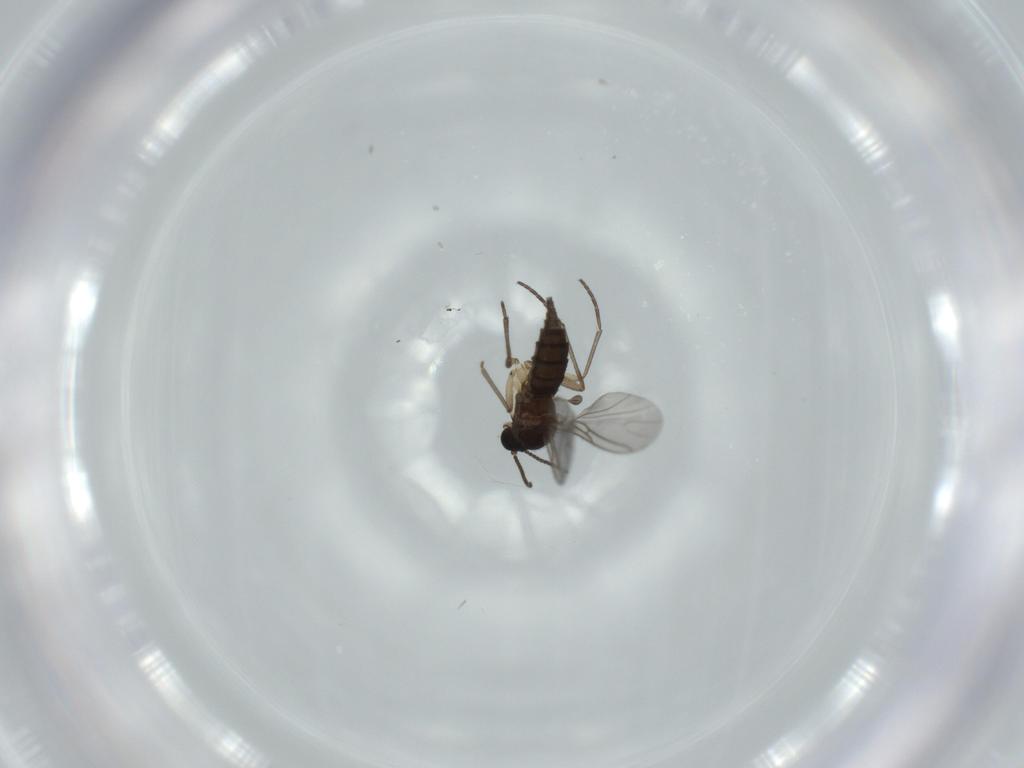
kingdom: Animalia
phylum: Arthropoda
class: Insecta
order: Diptera
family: Sciaridae
